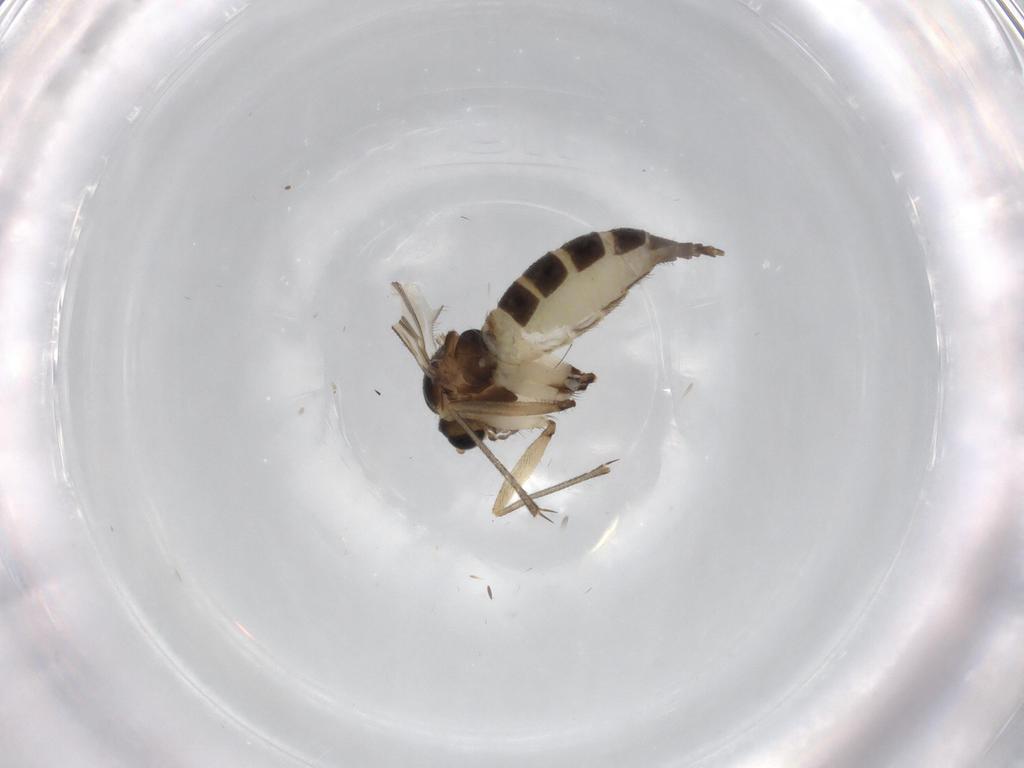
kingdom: Animalia
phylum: Arthropoda
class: Insecta
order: Diptera
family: Sciaridae
